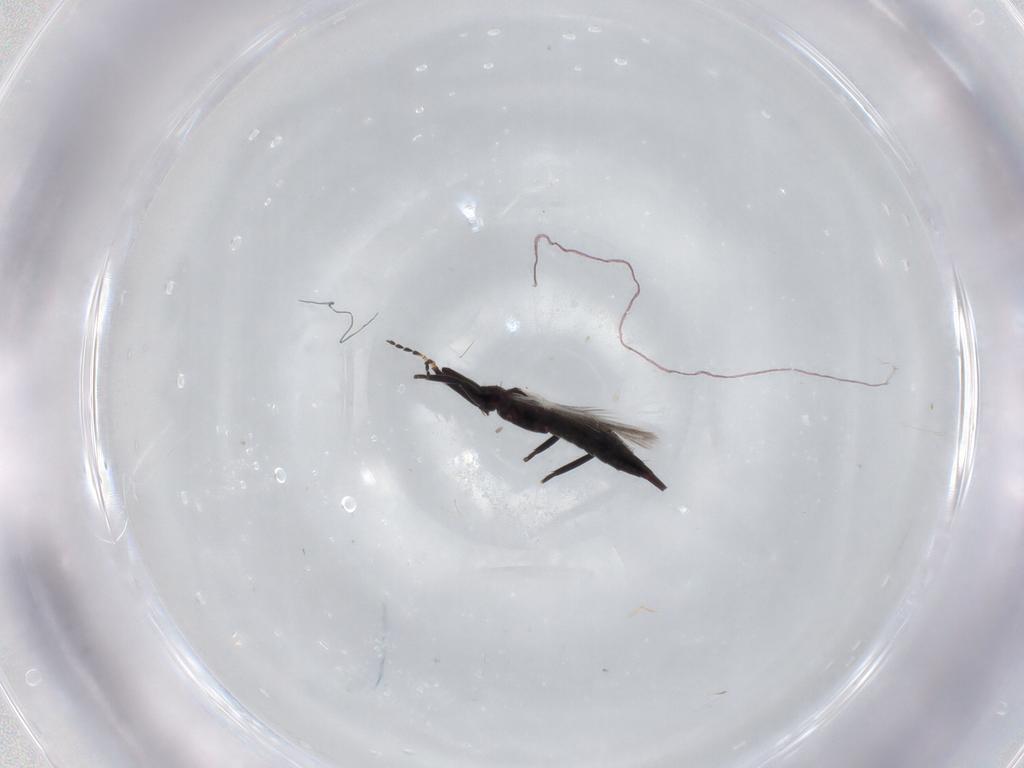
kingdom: Animalia
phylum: Arthropoda
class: Insecta
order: Thysanoptera
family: Phlaeothripidae
